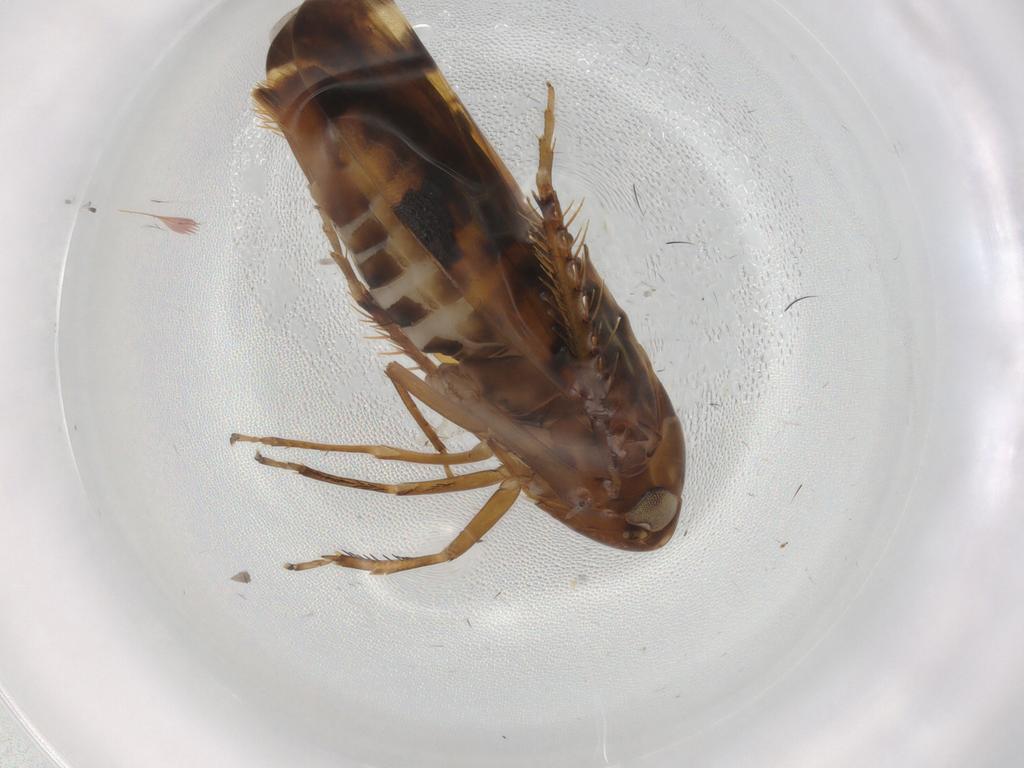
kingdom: Animalia
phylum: Arthropoda
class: Insecta
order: Hemiptera
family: Cicadellidae
